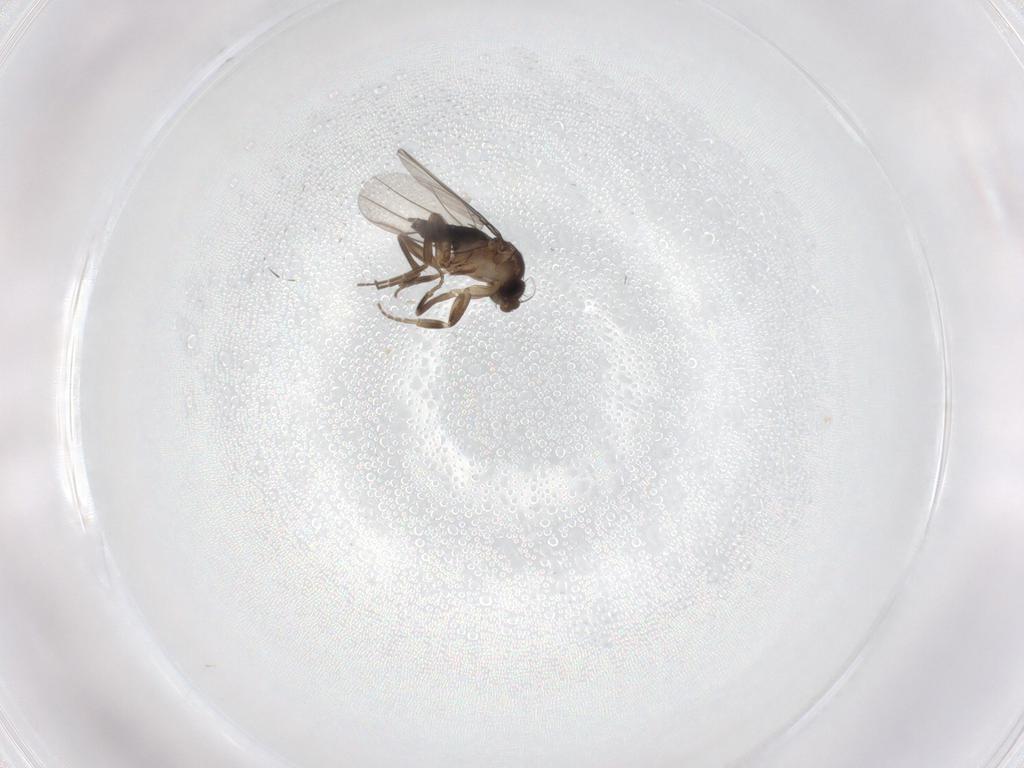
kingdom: Animalia
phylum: Arthropoda
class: Insecta
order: Diptera
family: Phoridae
